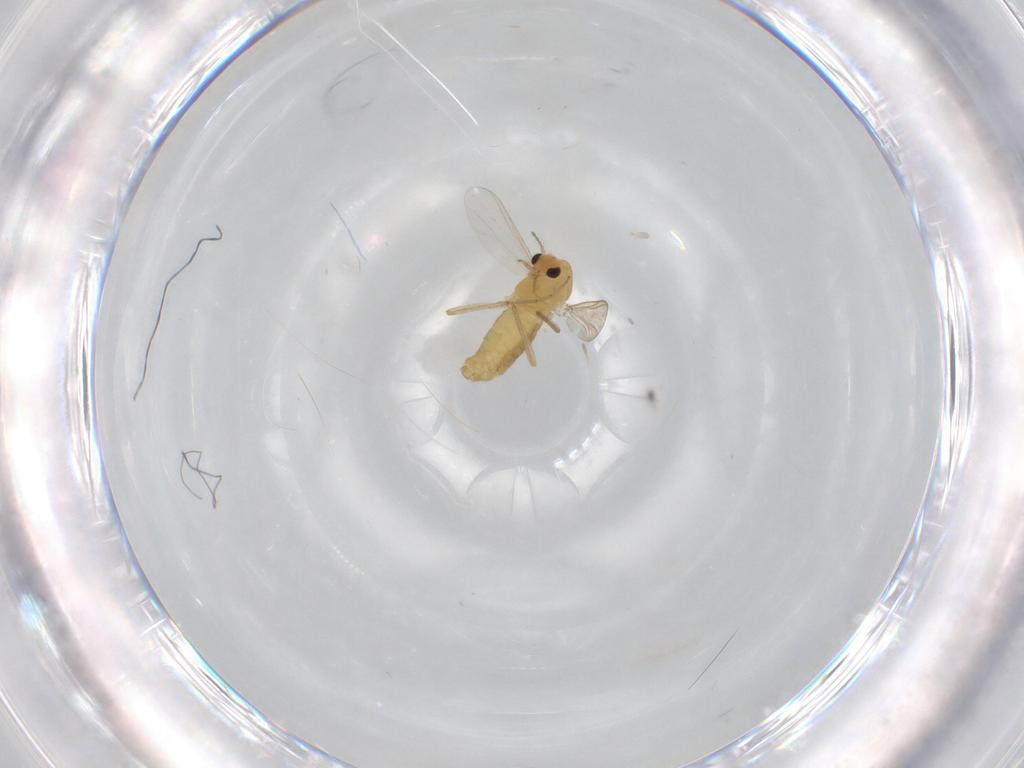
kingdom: Animalia
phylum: Arthropoda
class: Insecta
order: Diptera
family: Chironomidae
